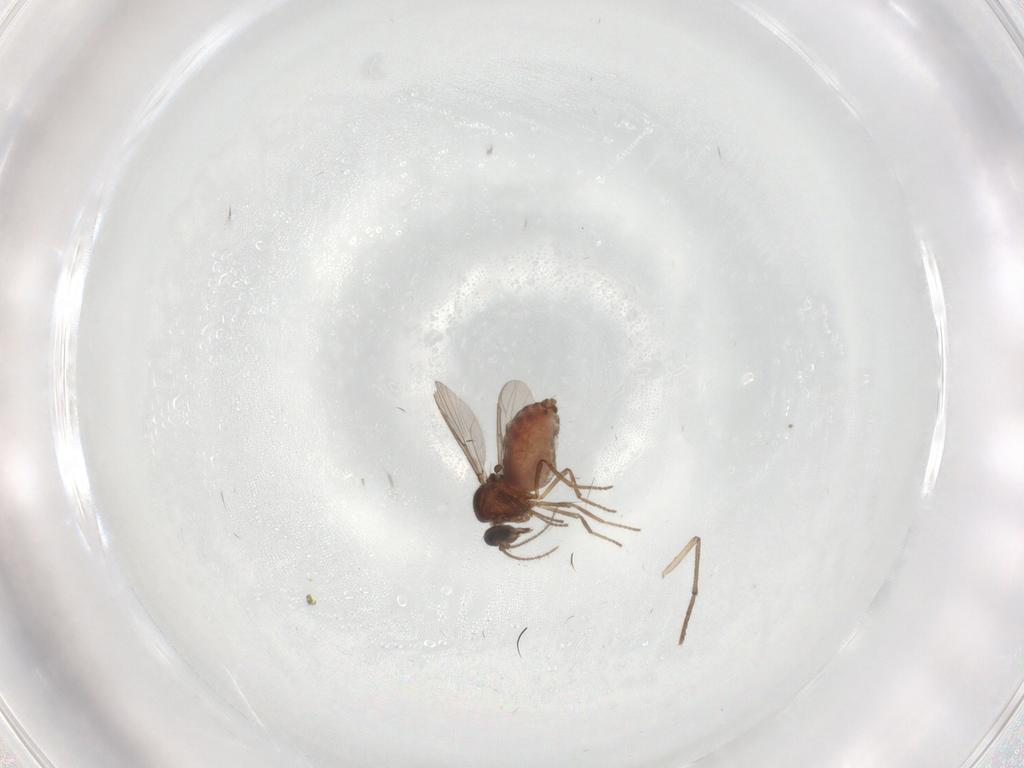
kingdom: Animalia
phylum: Arthropoda
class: Insecta
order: Diptera
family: Ceratopogonidae
